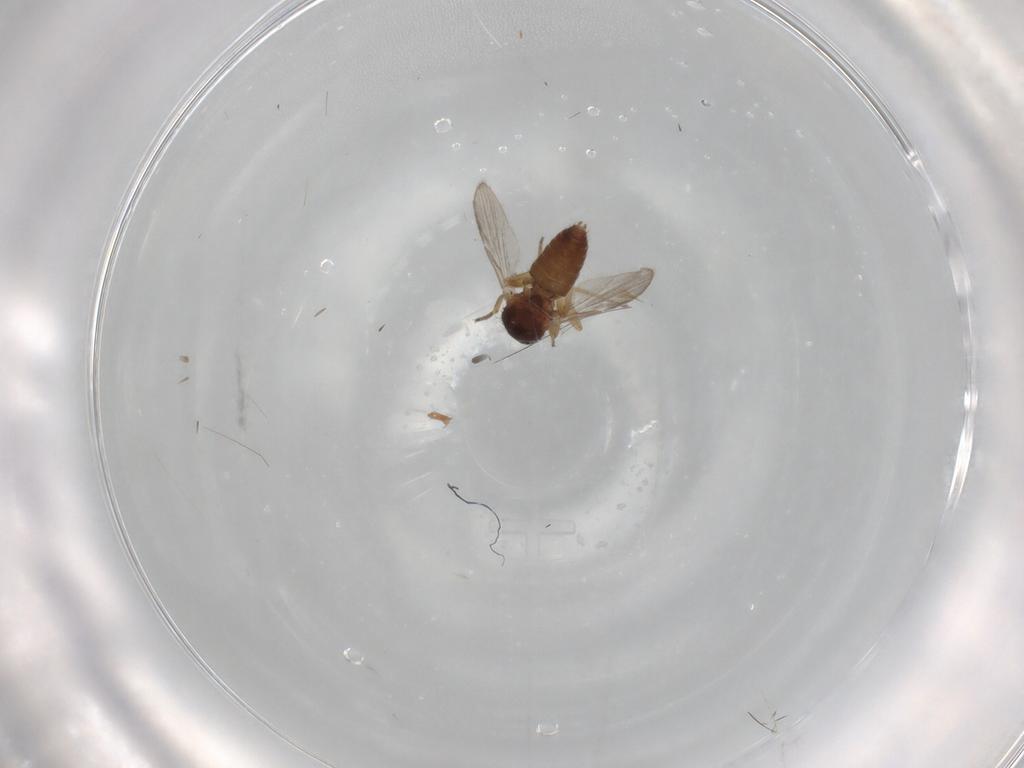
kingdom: Animalia
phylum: Arthropoda
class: Insecta
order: Diptera
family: Ceratopogonidae
